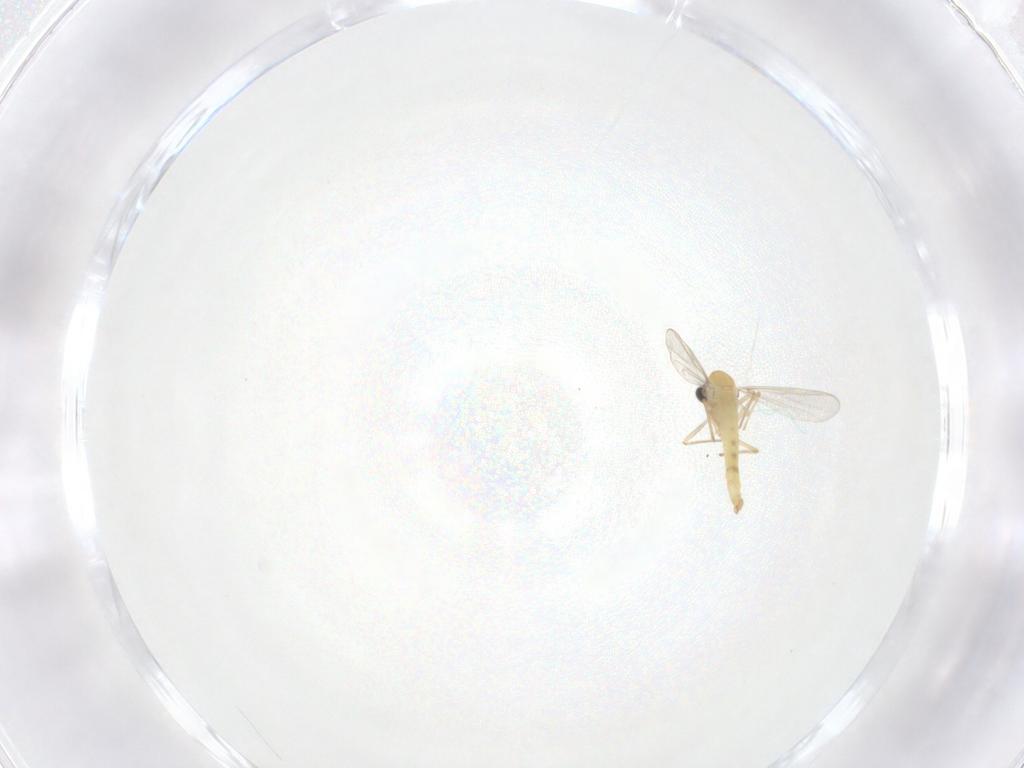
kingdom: Animalia
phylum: Arthropoda
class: Insecta
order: Diptera
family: Chironomidae
